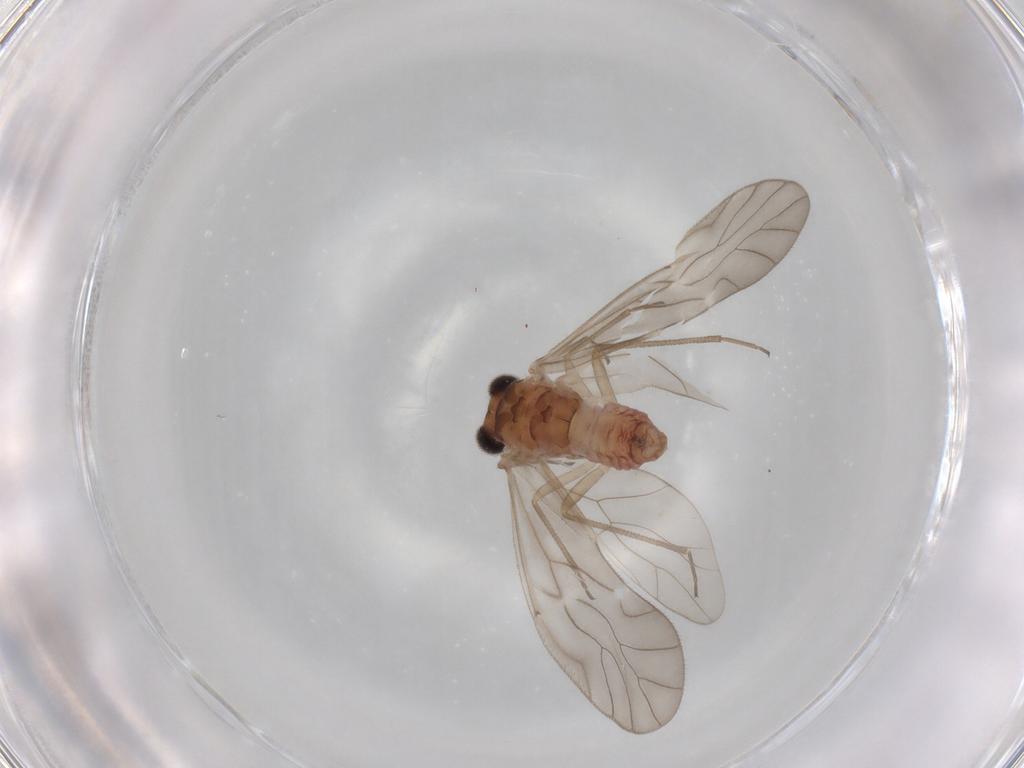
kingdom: Animalia
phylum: Arthropoda
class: Insecta
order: Psocodea
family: Caeciliusidae
